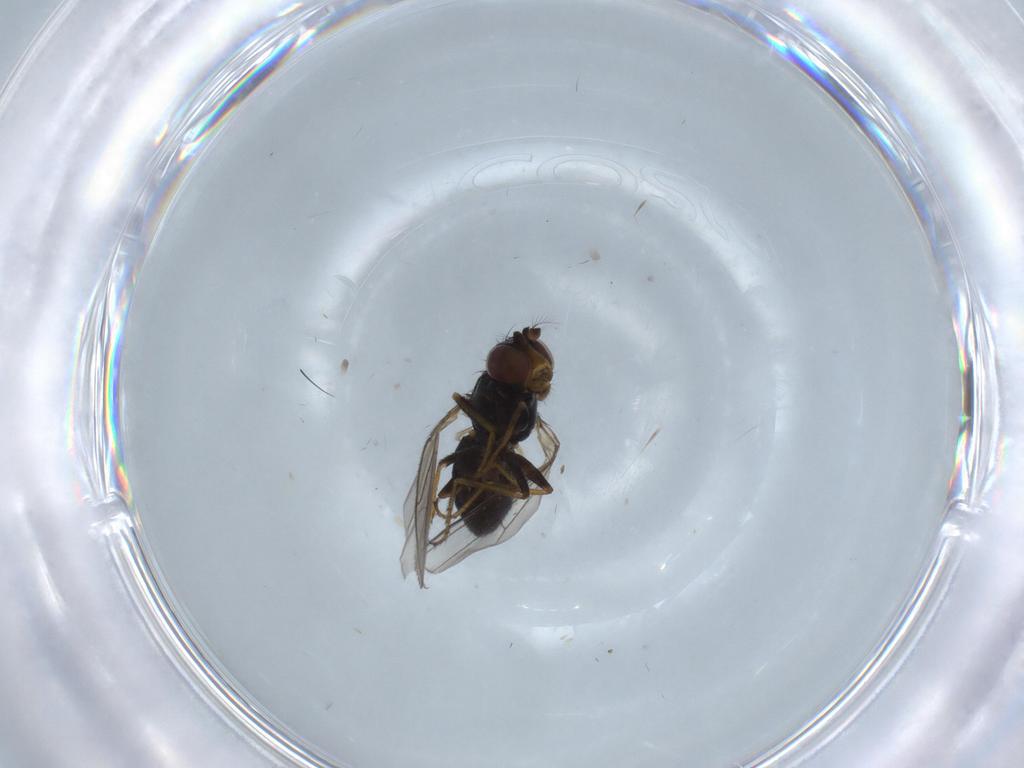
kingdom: Animalia
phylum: Arthropoda
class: Insecta
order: Diptera
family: Sciaridae
